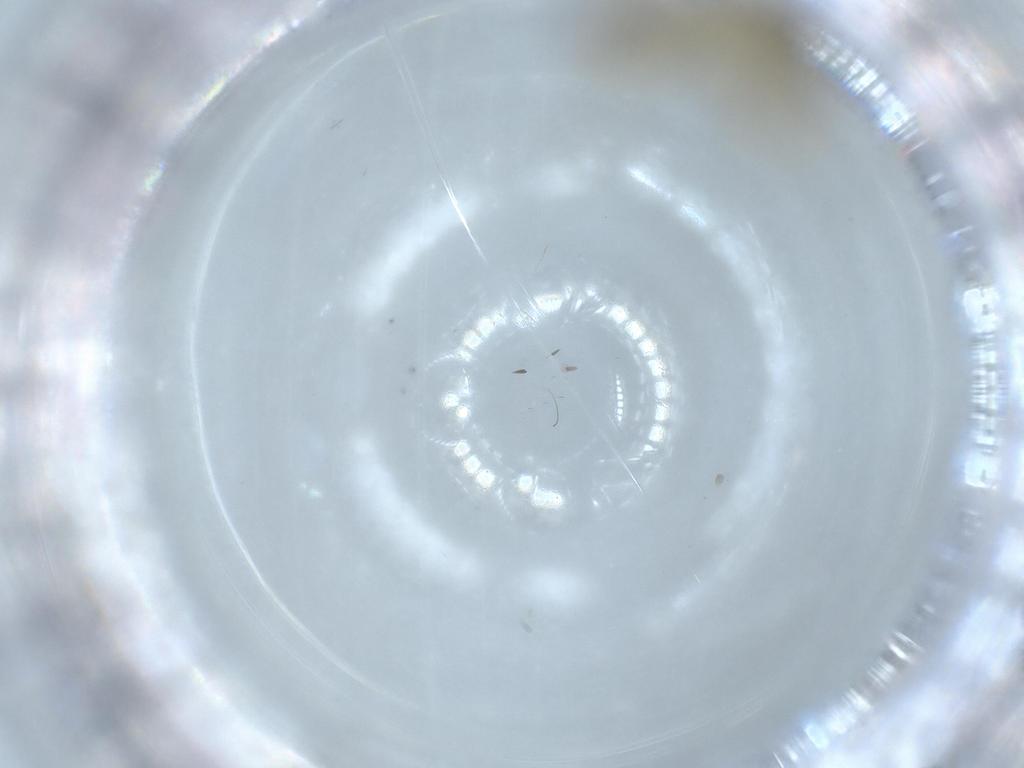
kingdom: Animalia
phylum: Arthropoda
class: Insecta
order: Diptera
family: Ceratopogonidae
